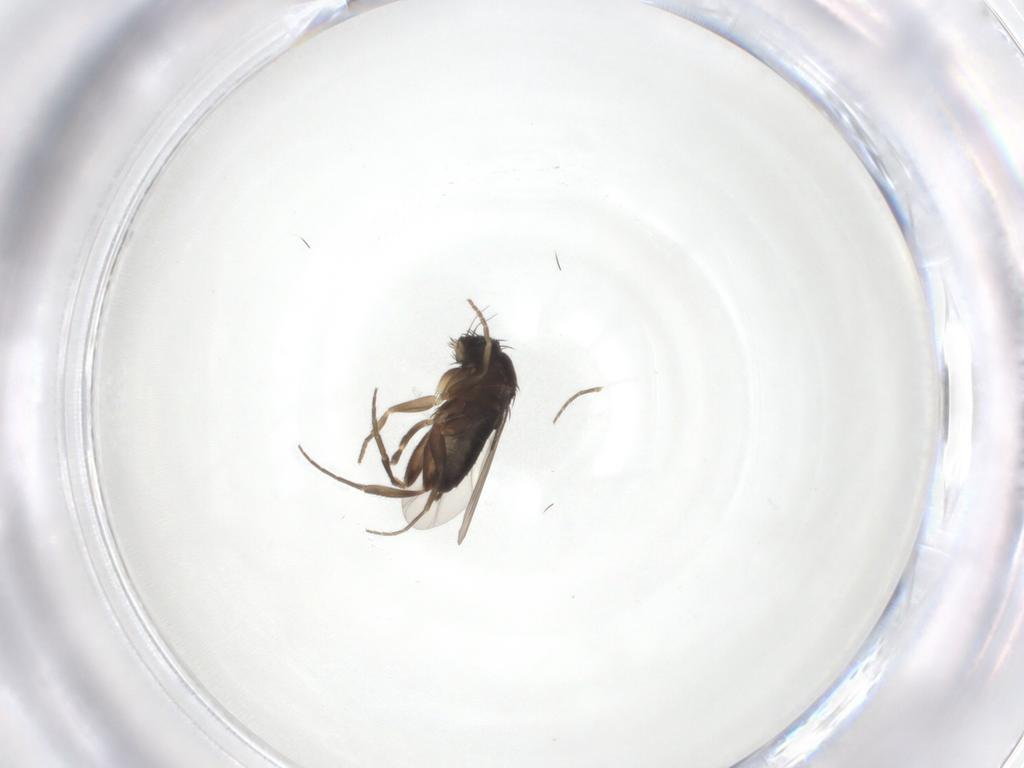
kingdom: Animalia
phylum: Arthropoda
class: Insecta
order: Diptera
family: Phoridae
